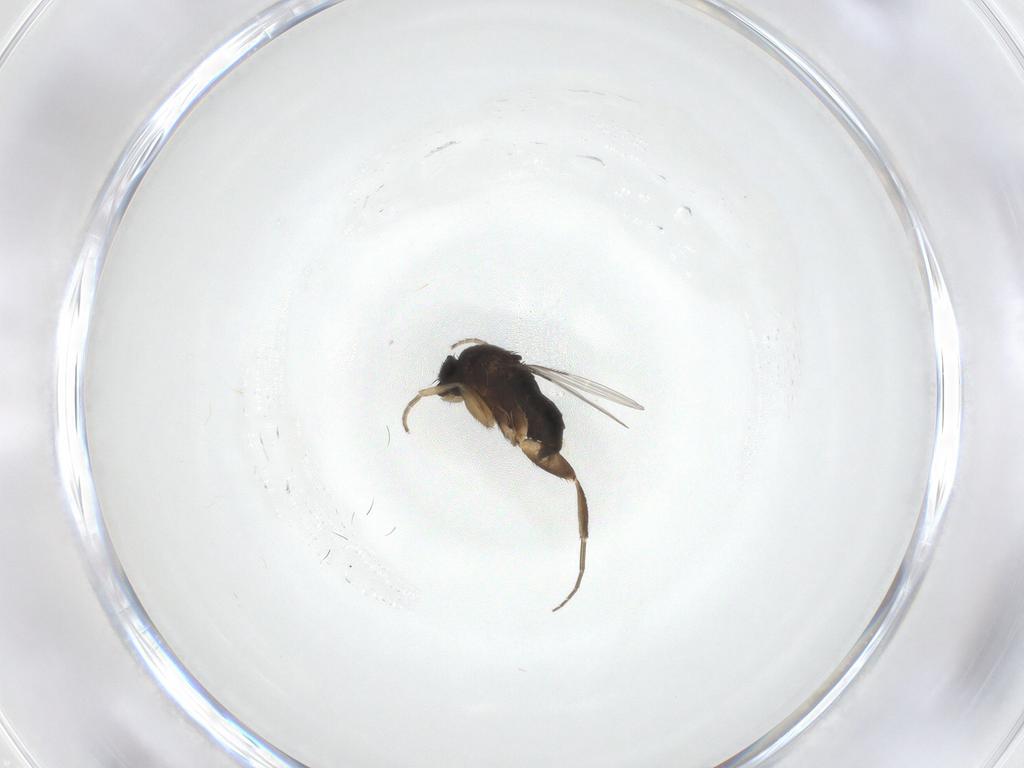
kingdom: Animalia
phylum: Arthropoda
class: Insecta
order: Diptera
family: Phoridae
